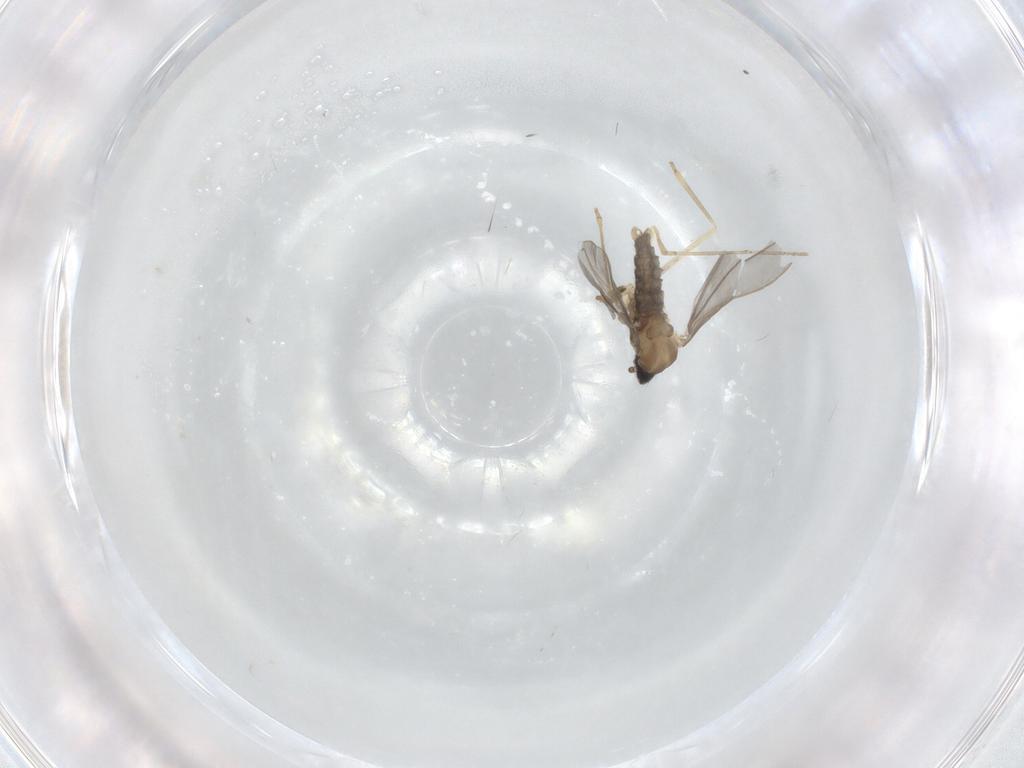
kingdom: Animalia
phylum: Arthropoda
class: Insecta
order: Diptera
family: Cecidomyiidae
